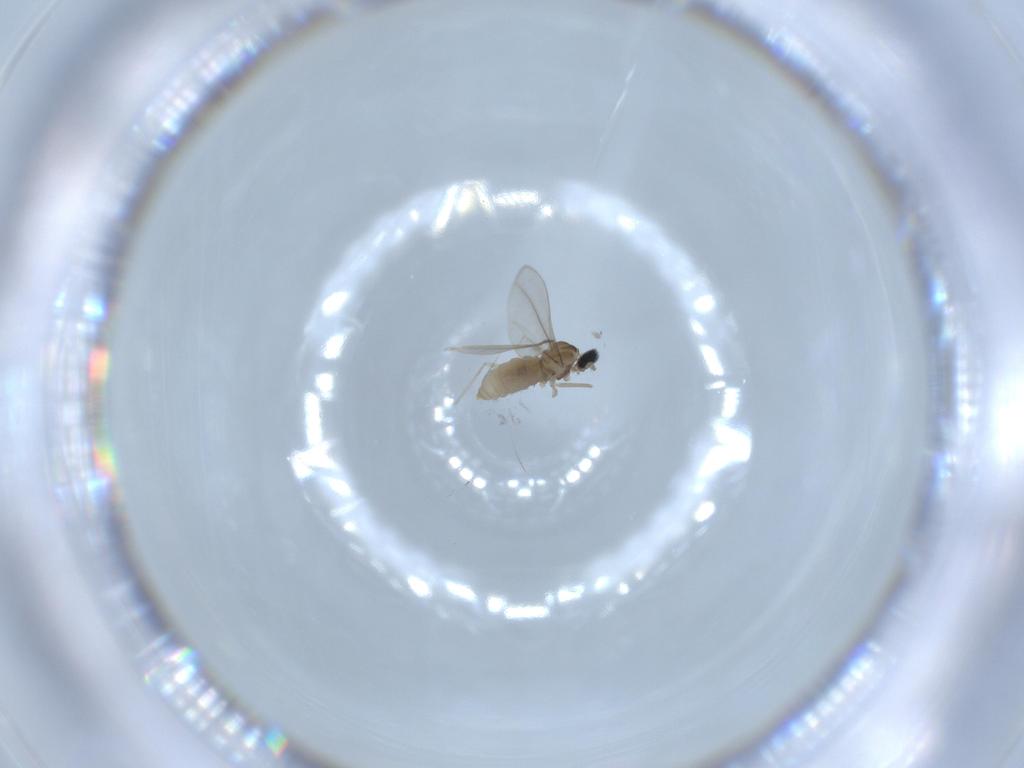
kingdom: Animalia
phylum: Arthropoda
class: Insecta
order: Diptera
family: Cecidomyiidae
